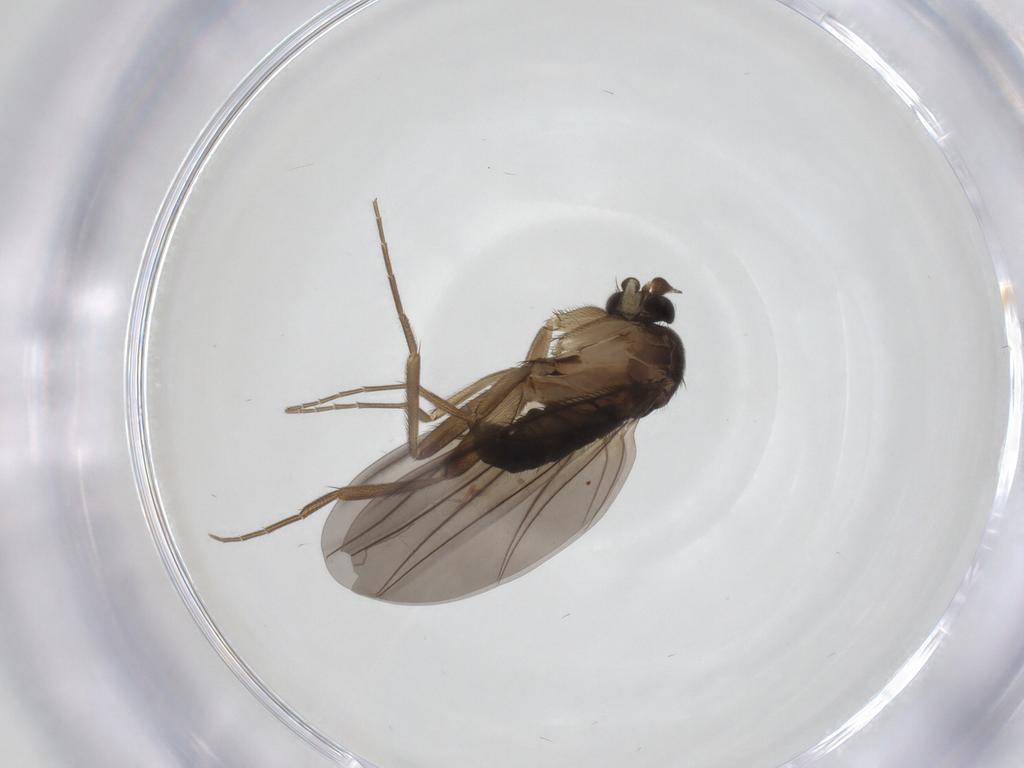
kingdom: Animalia
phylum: Arthropoda
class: Insecta
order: Diptera
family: Phoridae
